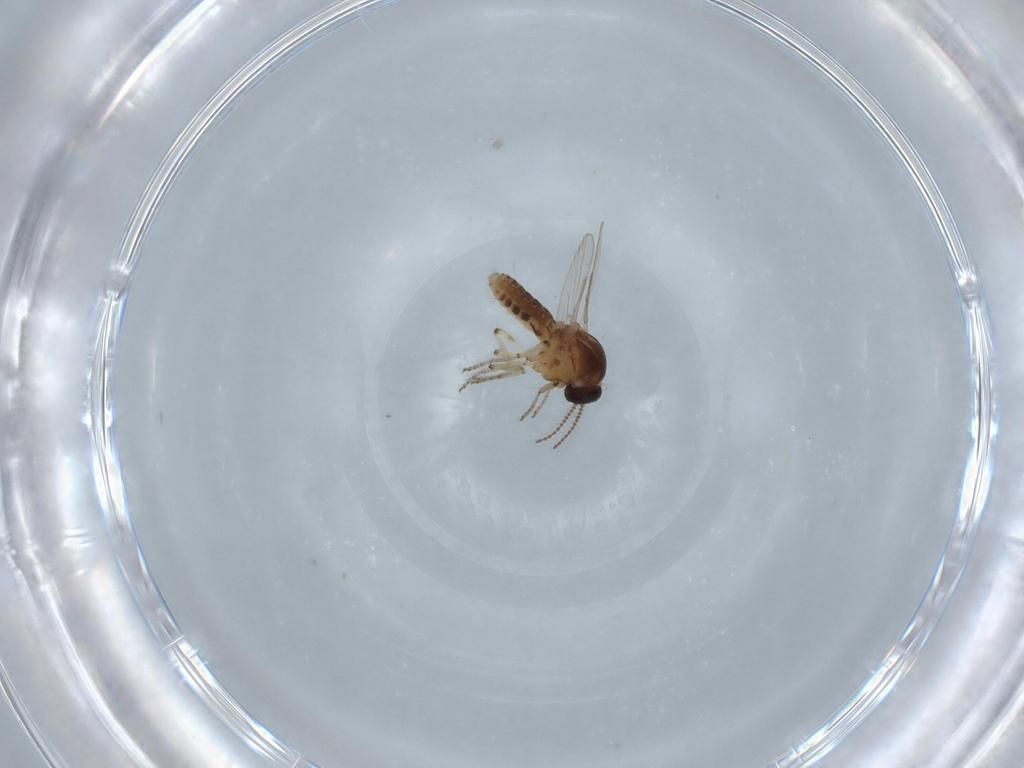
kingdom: Animalia
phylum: Arthropoda
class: Insecta
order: Diptera
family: Ceratopogonidae
